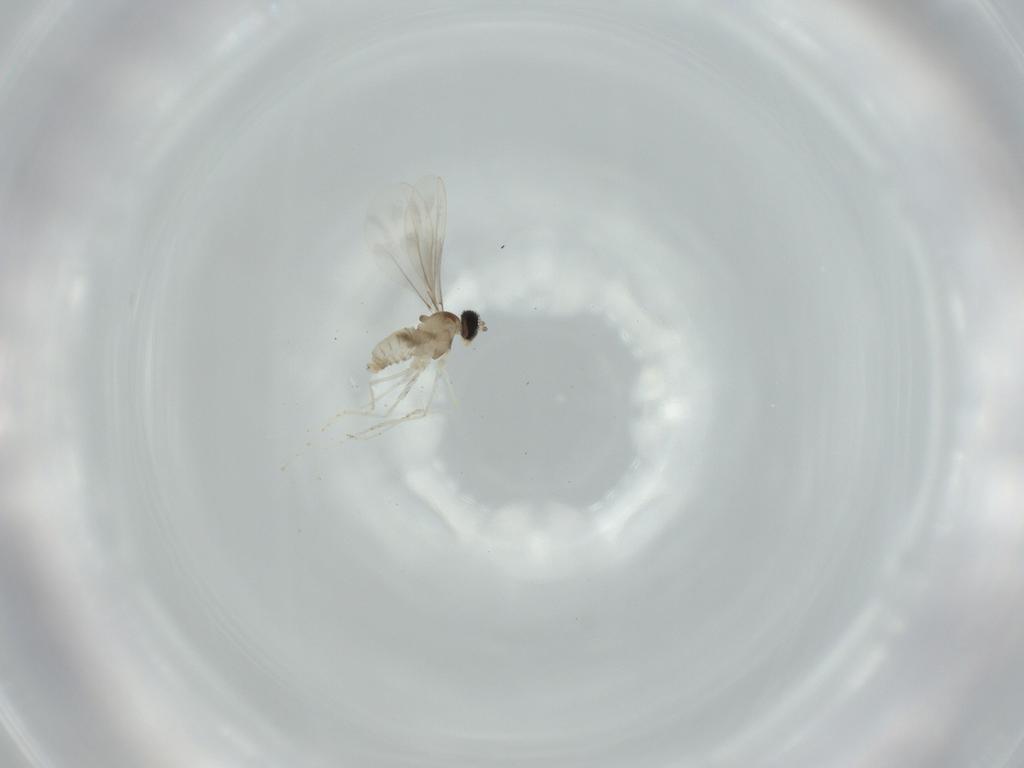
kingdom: Animalia
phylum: Arthropoda
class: Insecta
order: Diptera
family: Cecidomyiidae
